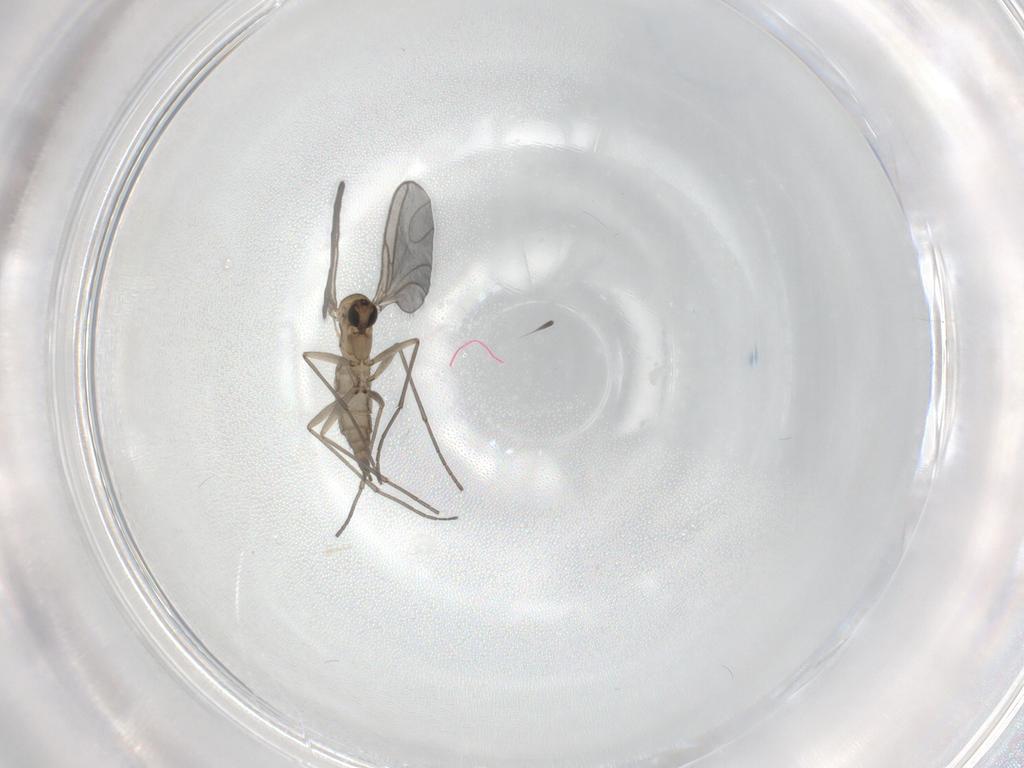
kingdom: Animalia
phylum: Arthropoda
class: Insecta
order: Diptera
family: Sciaridae
